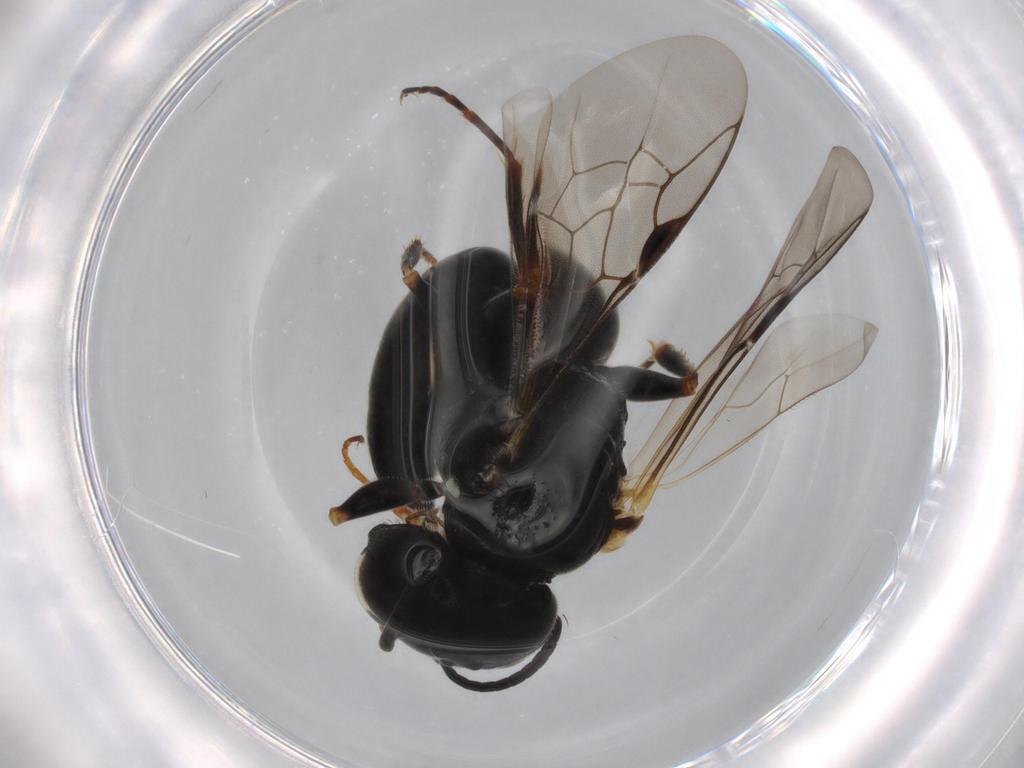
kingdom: Animalia
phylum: Arthropoda
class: Insecta
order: Hymenoptera
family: Crabronidae
